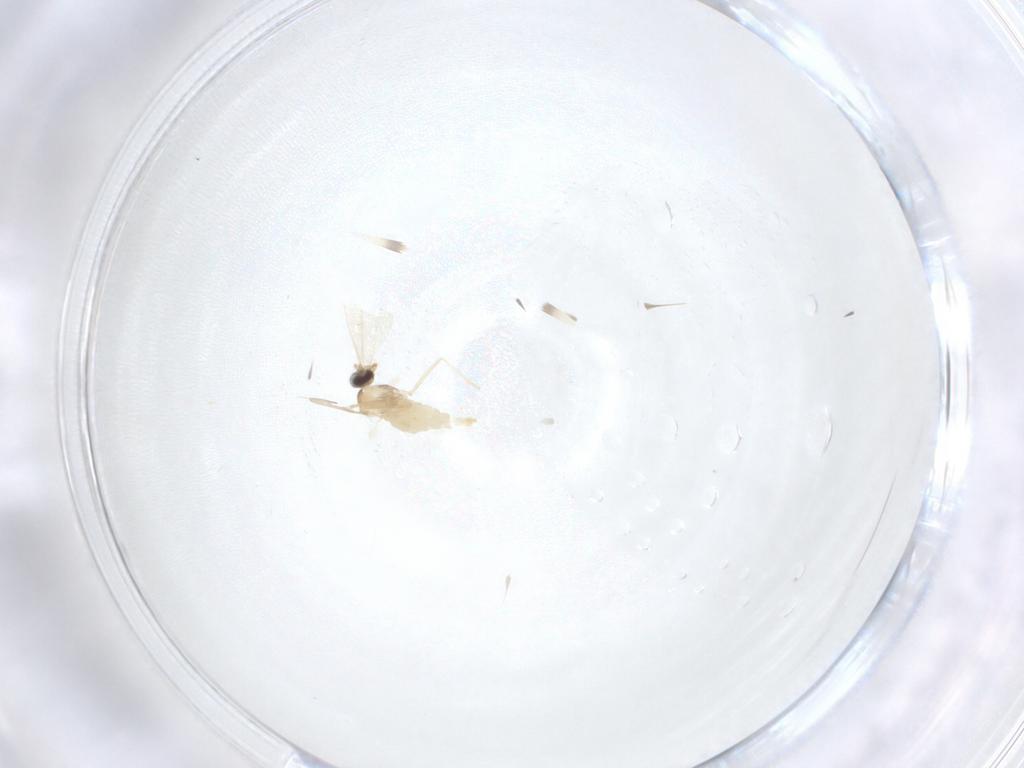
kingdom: Animalia
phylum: Arthropoda
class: Insecta
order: Diptera
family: Cecidomyiidae
